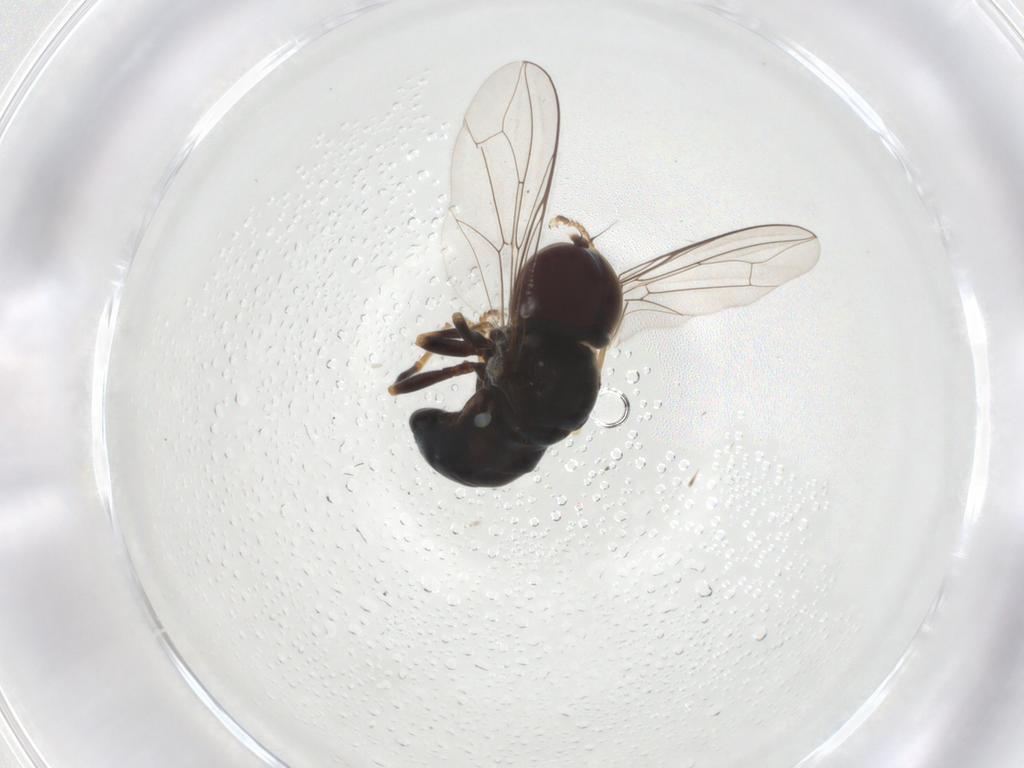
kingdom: Animalia
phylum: Arthropoda
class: Insecta
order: Diptera
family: Pipunculidae
